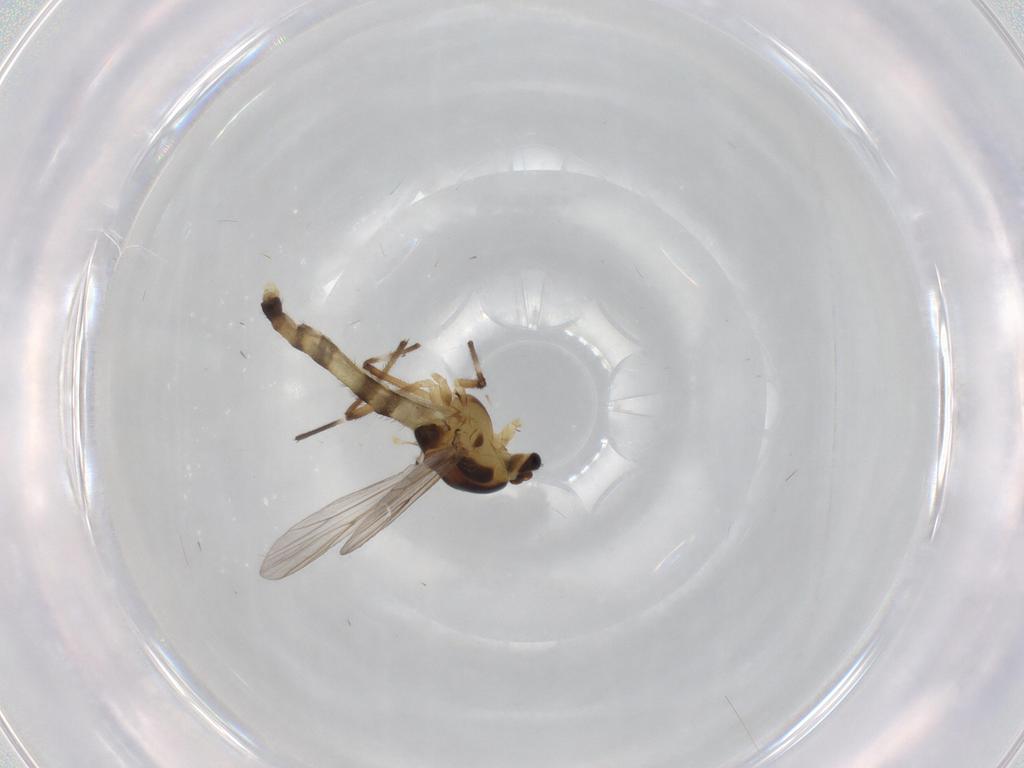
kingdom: Animalia
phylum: Arthropoda
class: Insecta
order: Diptera
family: Chironomidae
